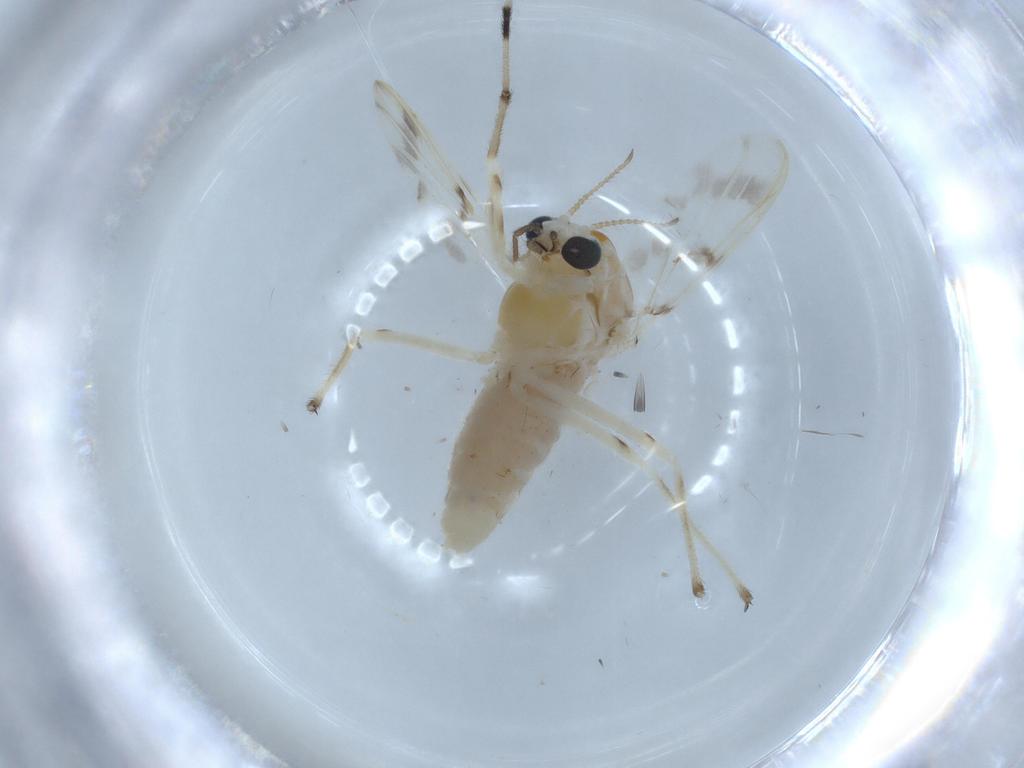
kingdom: Animalia
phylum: Arthropoda
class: Insecta
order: Diptera
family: Chironomidae
